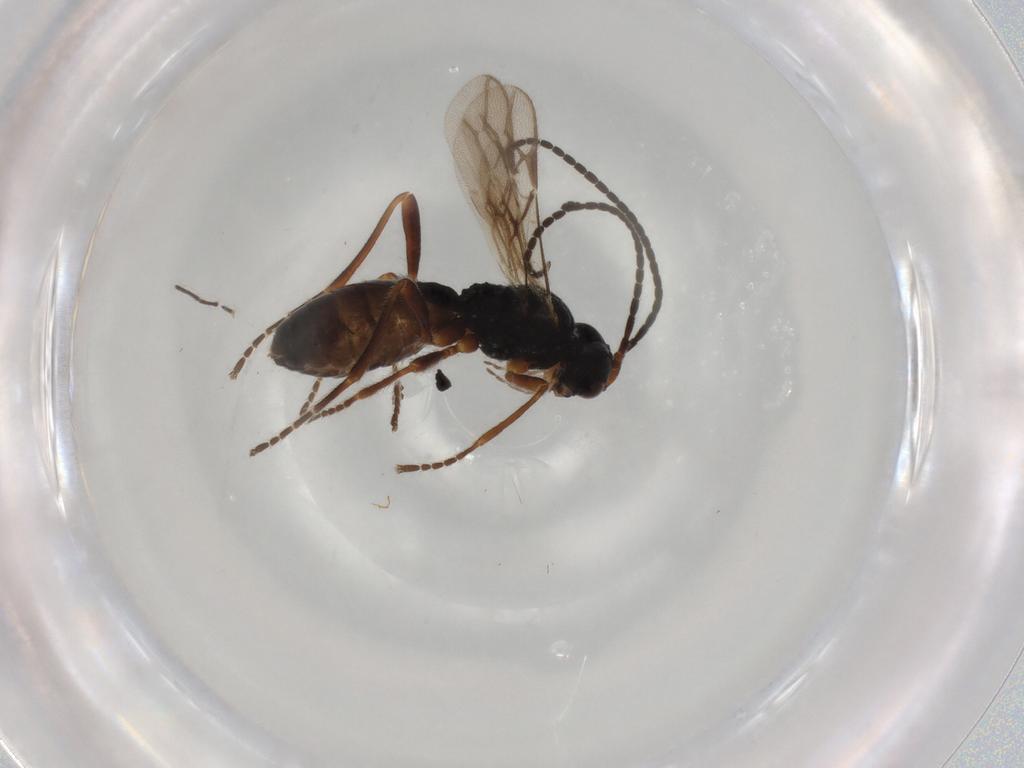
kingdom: Animalia
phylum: Arthropoda
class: Insecta
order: Hymenoptera
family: Braconidae
